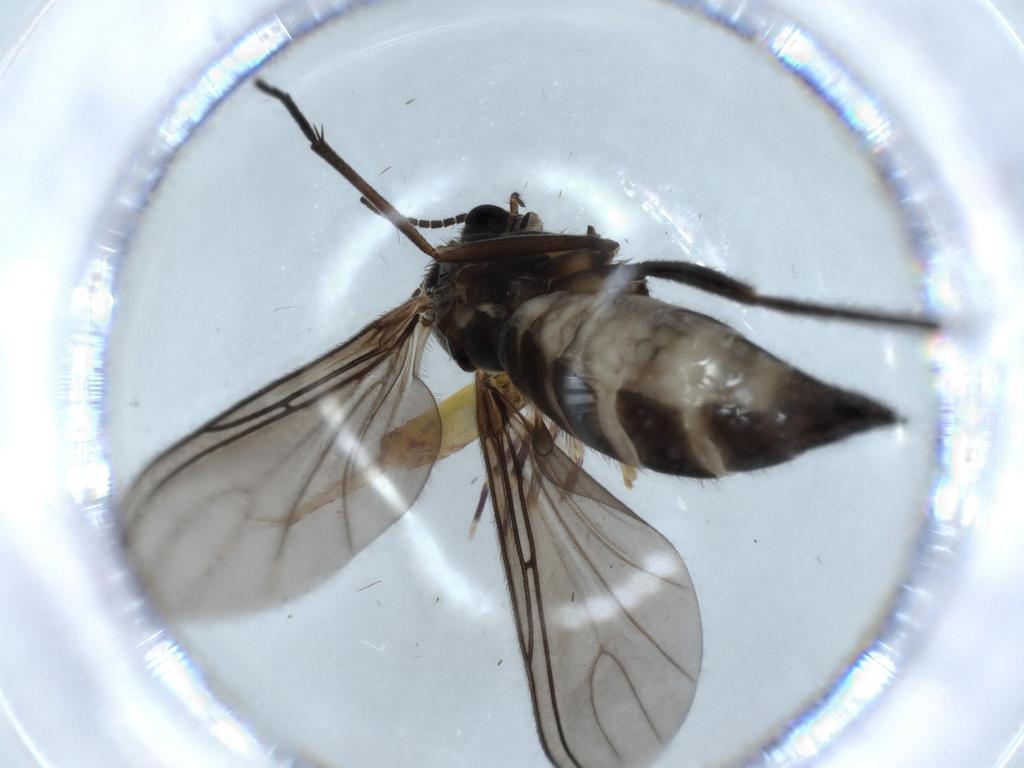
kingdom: Animalia
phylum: Arthropoda
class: Insecta
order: Diptera
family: Sciaridae
